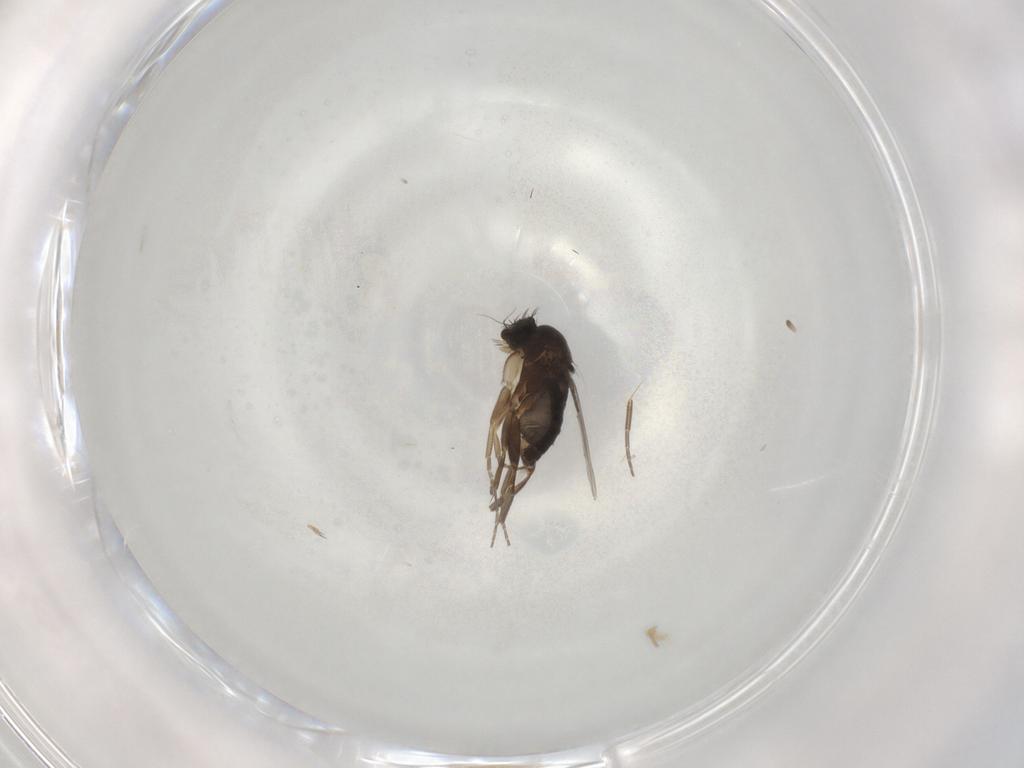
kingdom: Animalia
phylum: Arthropoda
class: Insecta
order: Diptera
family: Phoridae
